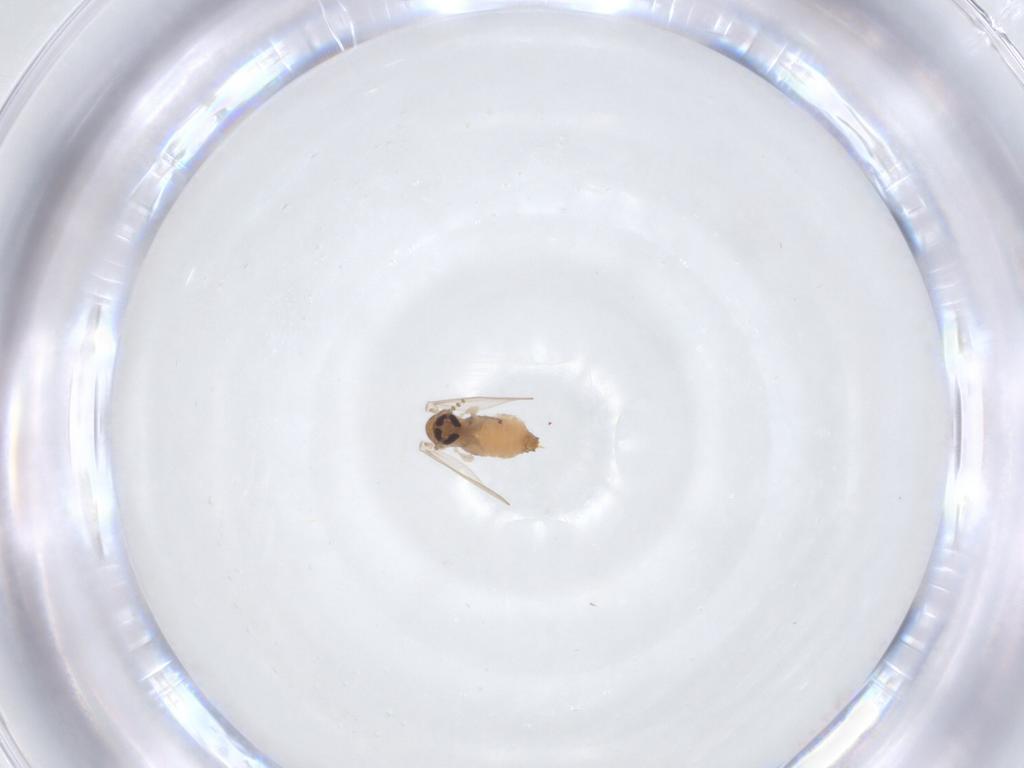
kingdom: Animalia
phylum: Arthropoda
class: Insecta
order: Diptera
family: Psychodidae
